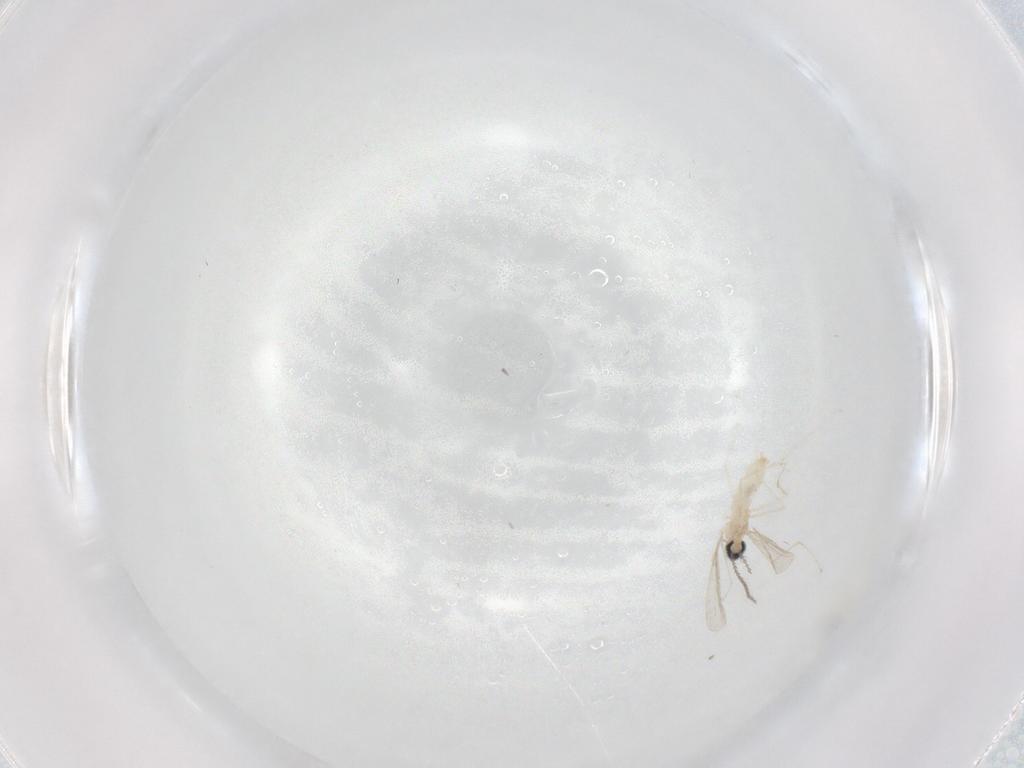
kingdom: Animalia
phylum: Arthropoda
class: Insecta
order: Diptera
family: Cecidomyiidae
